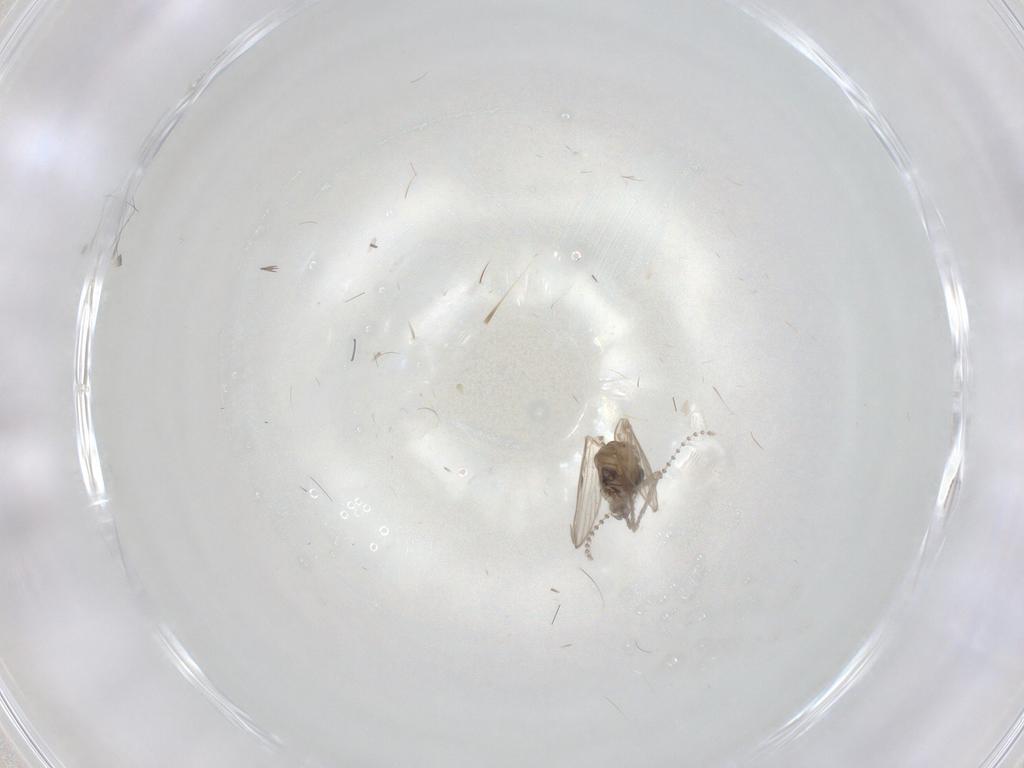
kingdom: Animalia
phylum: Arthropoda
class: Insecta
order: Diptera
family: Psychodidae
